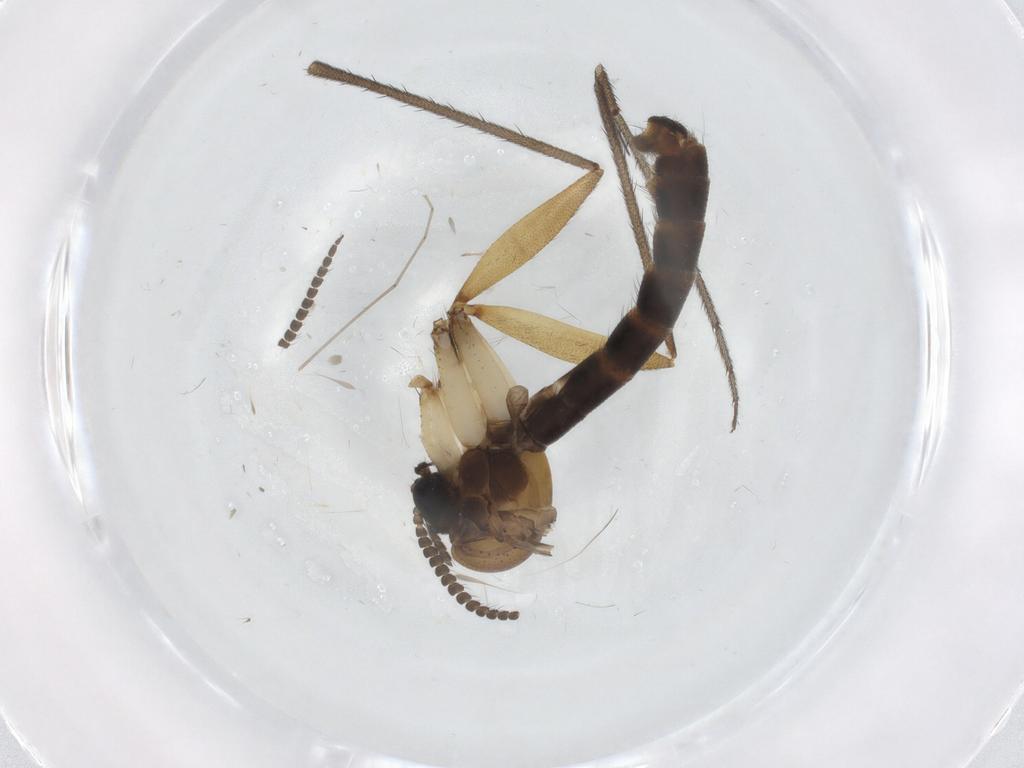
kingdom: Animalia
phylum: Arthropoda
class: Insecta
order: Diptera
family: Ditomyiidae
